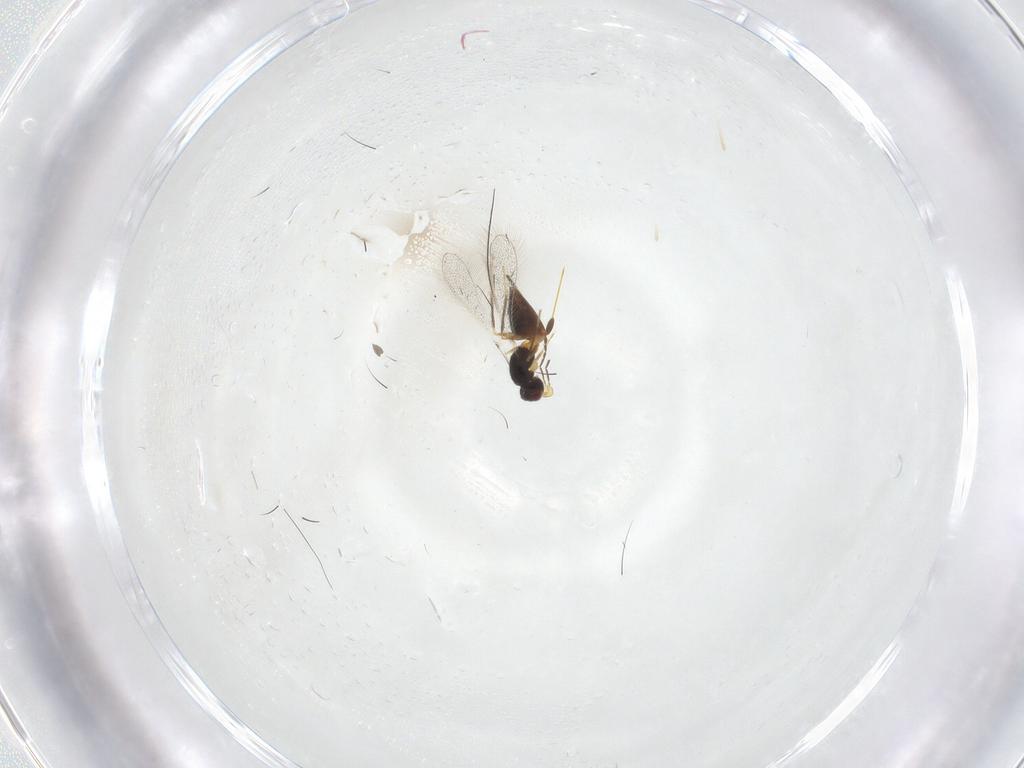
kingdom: Animalia
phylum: Arthropoda
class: Insecta
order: Hymenoptera
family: Mymaridae
